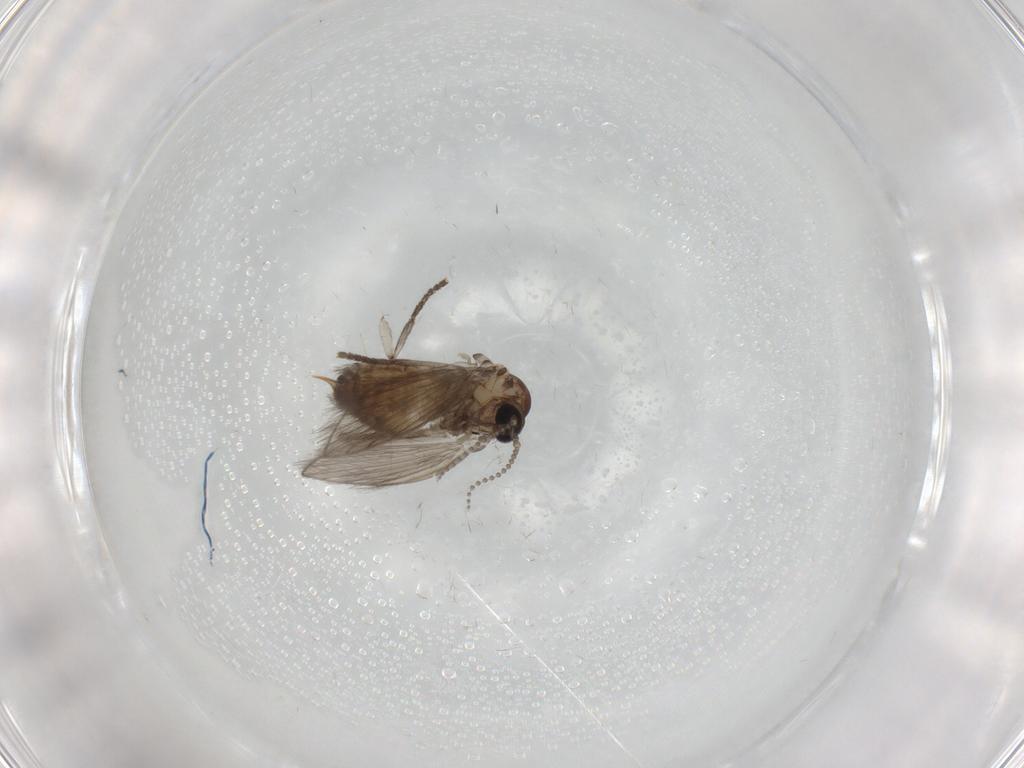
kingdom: Animalia
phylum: Arthropoda
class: Insecta
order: Diptera
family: Psychodidae
